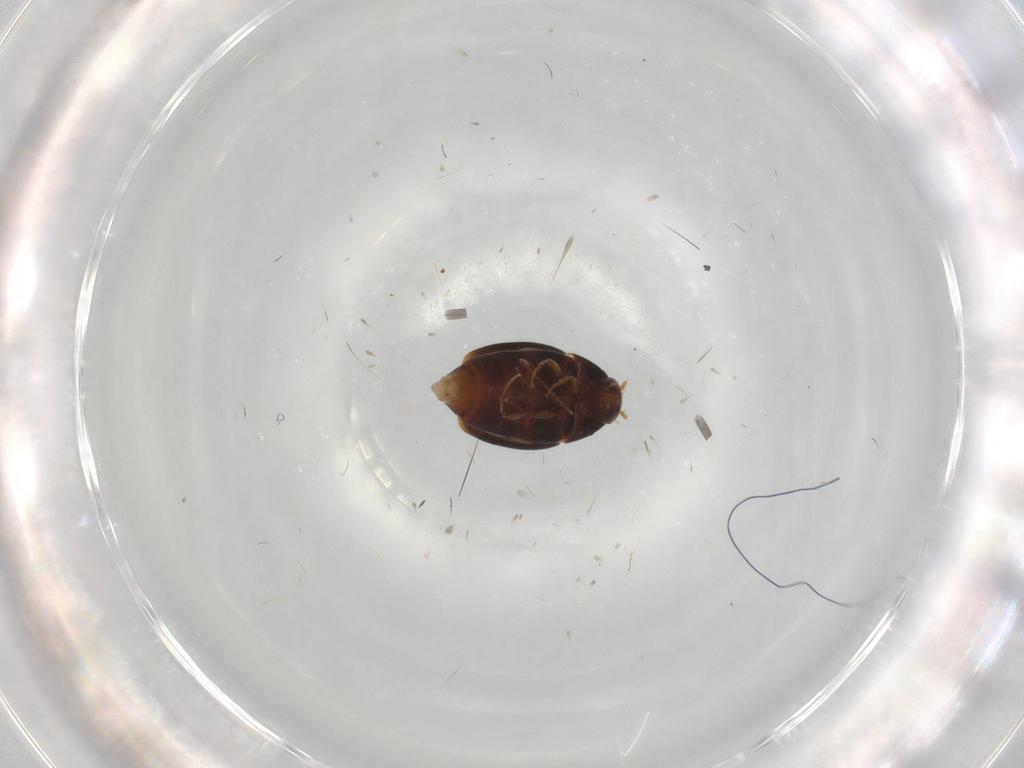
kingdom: Animalia
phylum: Arthropoda
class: Insecta
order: Coleoptera
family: Staphylinidae
